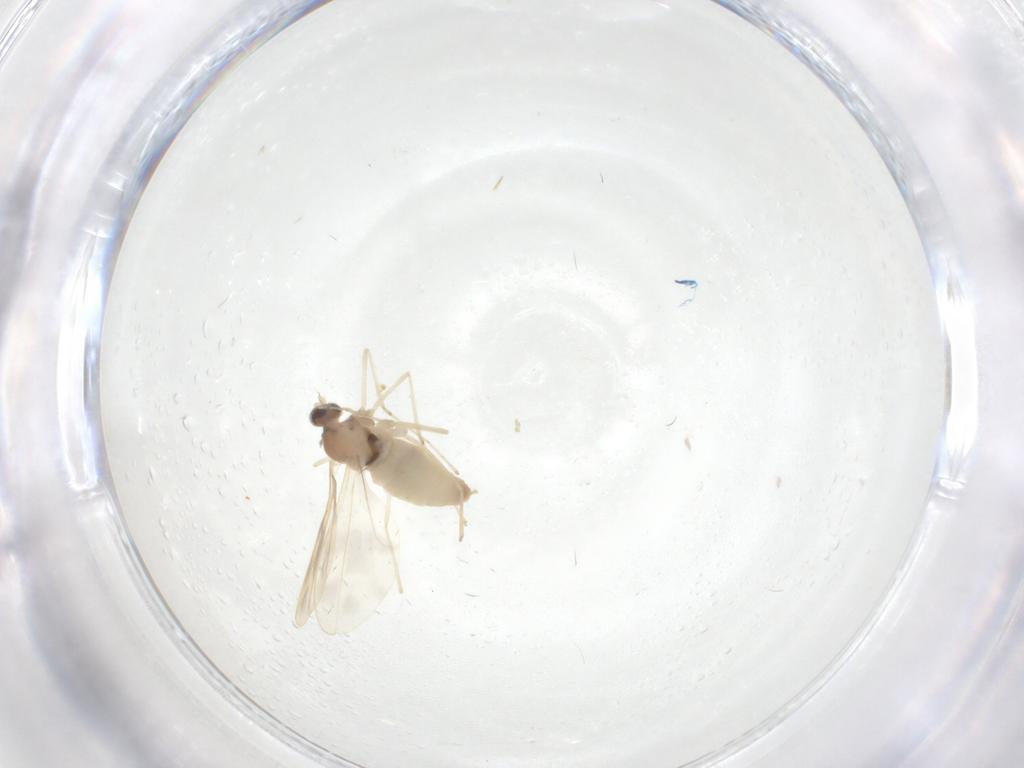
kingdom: Animalia
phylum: Arthropoda
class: Insecta
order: Diptera
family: Cecidomyiidae
